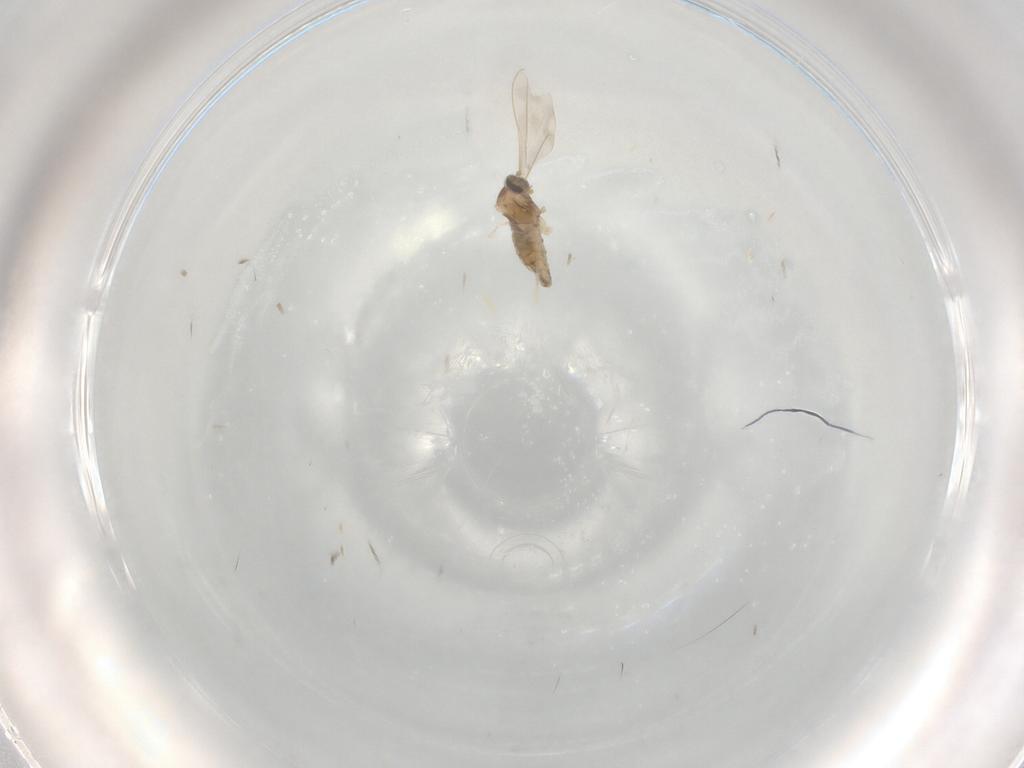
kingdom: Animalia
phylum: Arthropoda
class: Insecta
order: Diptera
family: Cecidomyiidae
